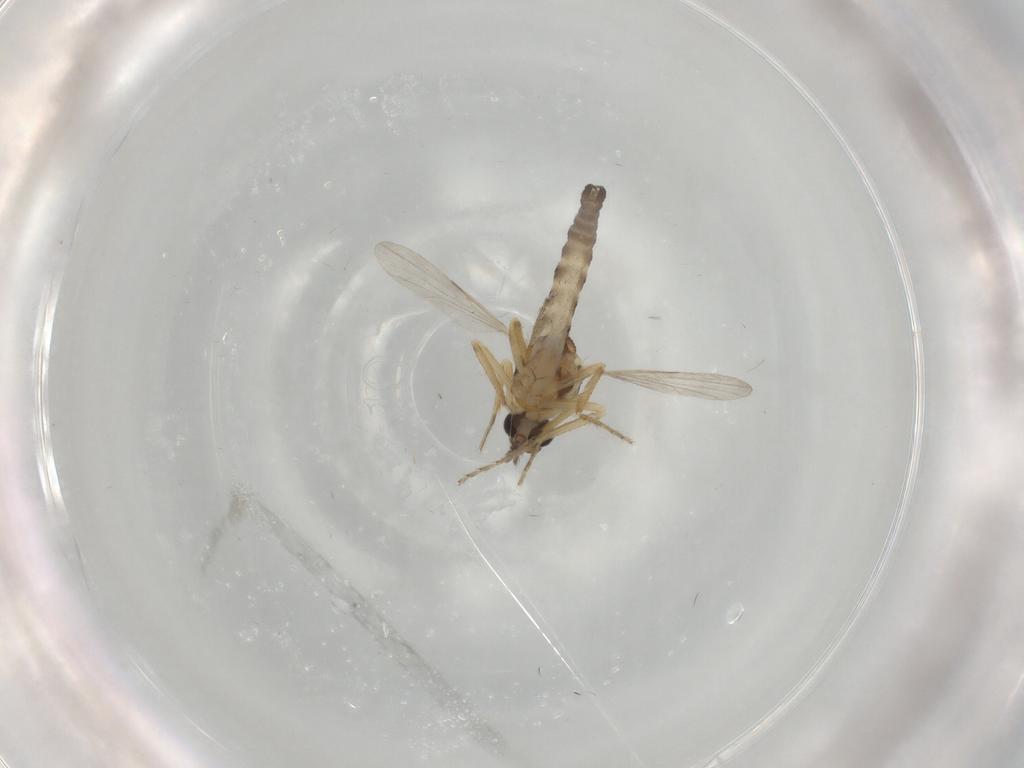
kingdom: Animalia
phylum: Arthropoda
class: Insecta
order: Diptera
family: Ceratopogonidae
